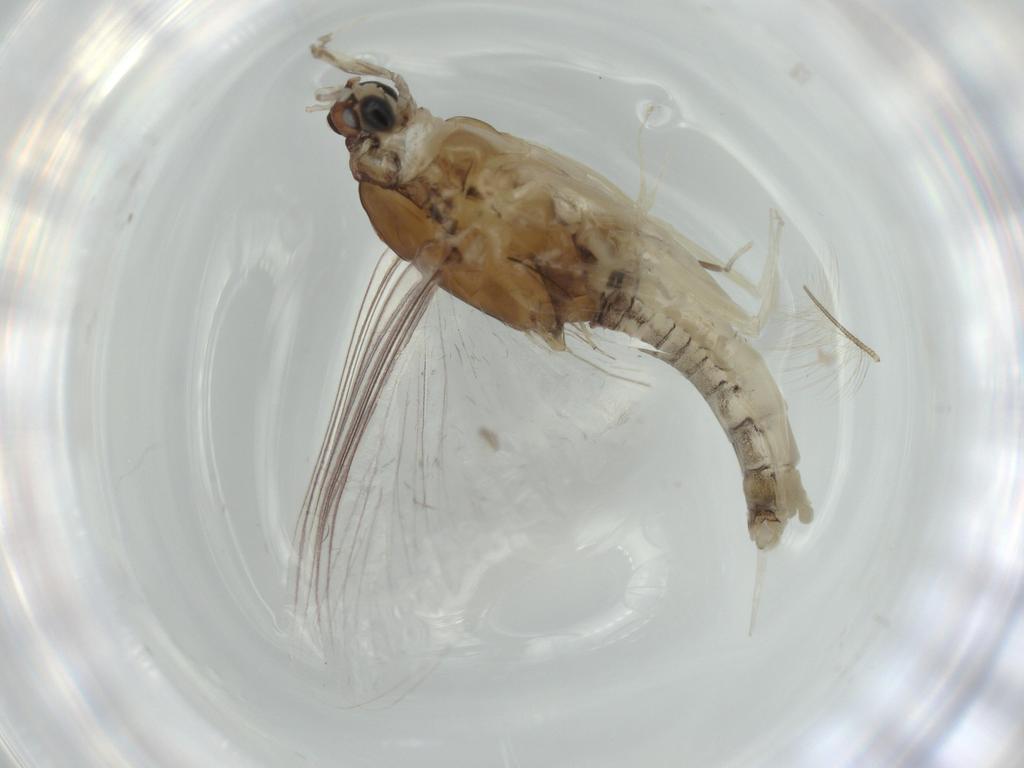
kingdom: Animalia
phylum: Arthropoda
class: Insecta
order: Ephemeroptera
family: Caenidae
